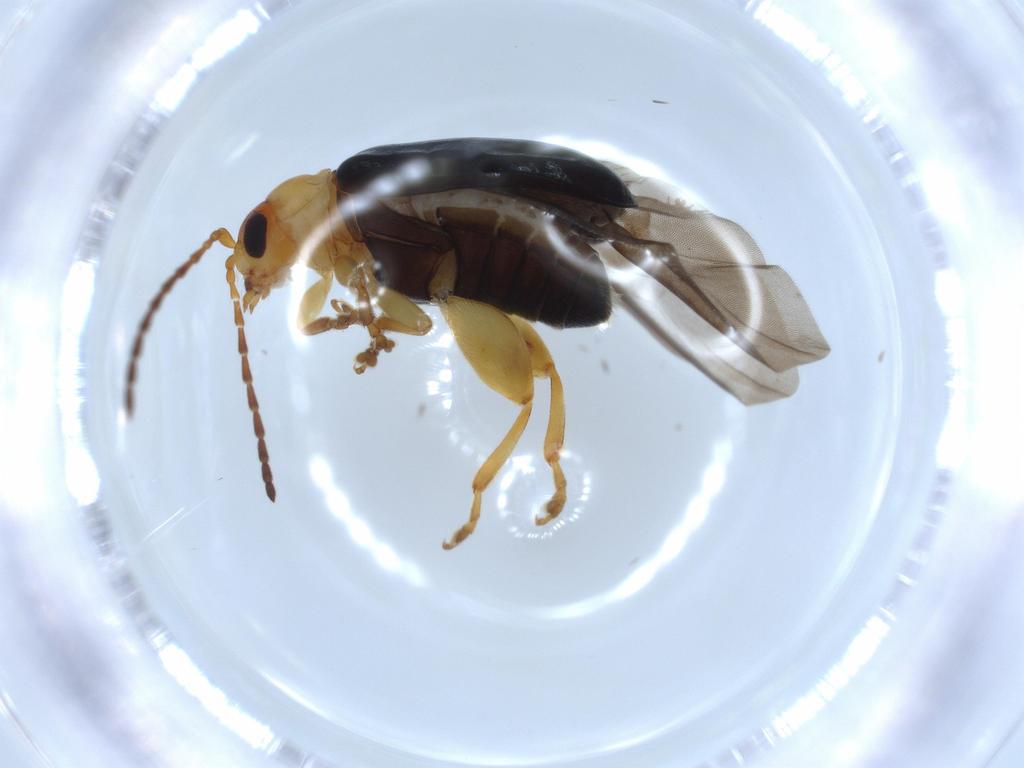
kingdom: Animalia
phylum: Arthropoda
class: Insecta
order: Coleoptera
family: Chrysomelidae
